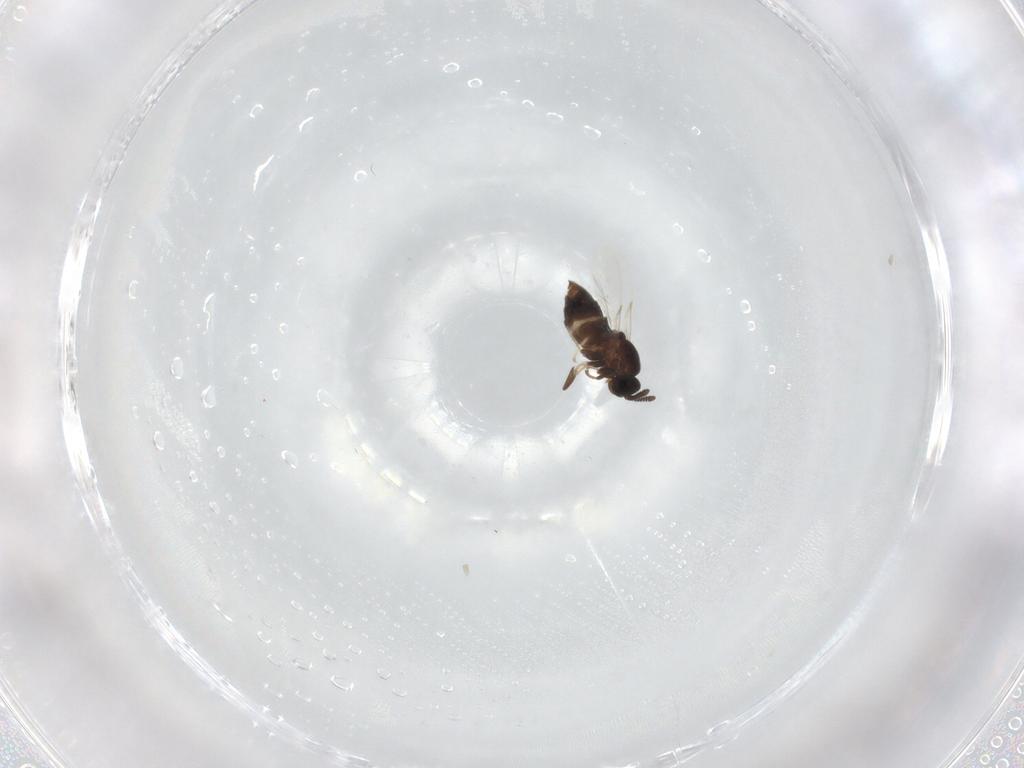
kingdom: Animalia
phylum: Arthropoda
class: Insecta
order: Diptera
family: Scatopsidae
